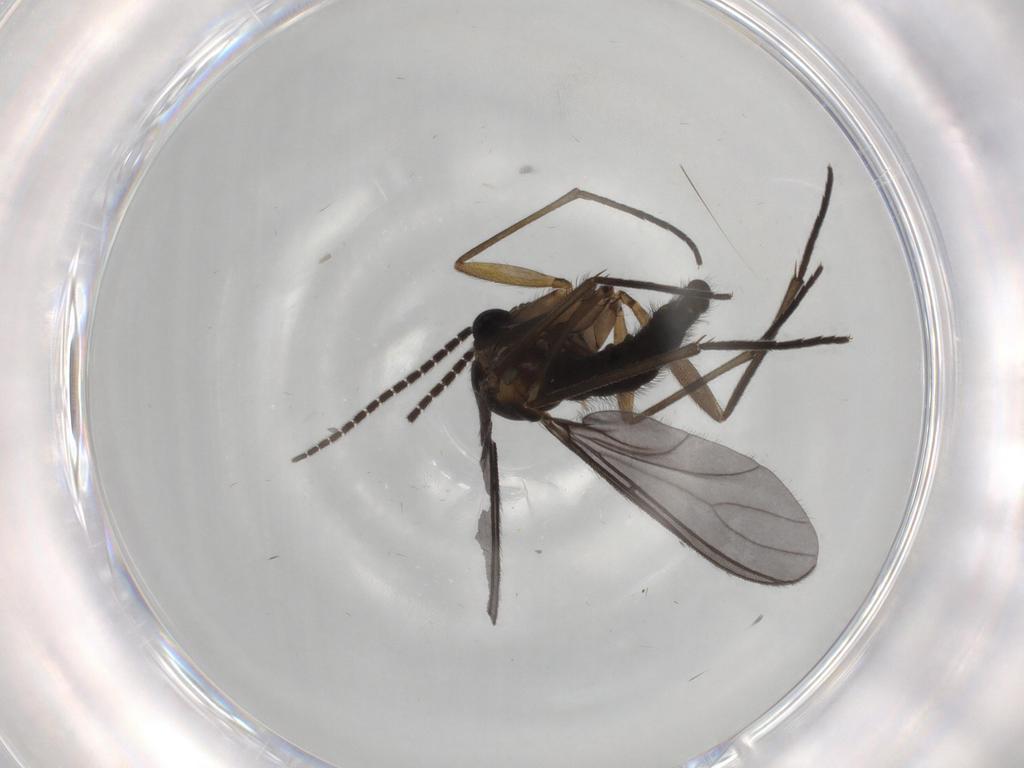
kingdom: Animalia
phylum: Arthropoda
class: Insecta
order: Diptera
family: Sciaridae
